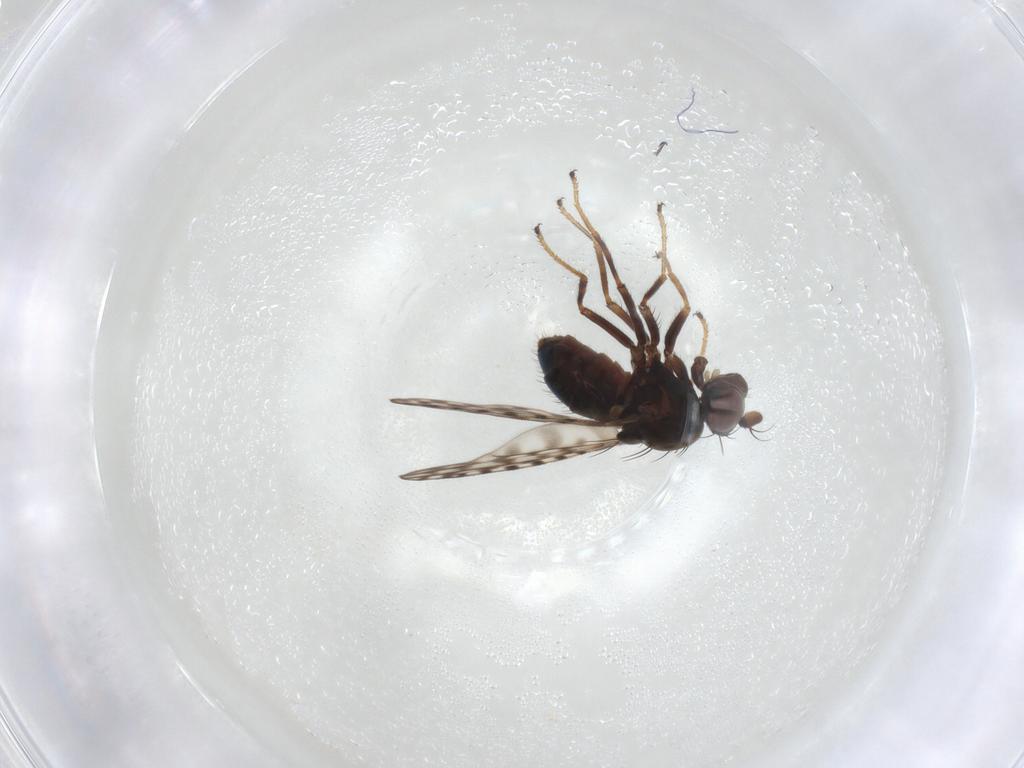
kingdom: Animalia
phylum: Arthropoda
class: Insecta
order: Diptera
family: Ephydridae
